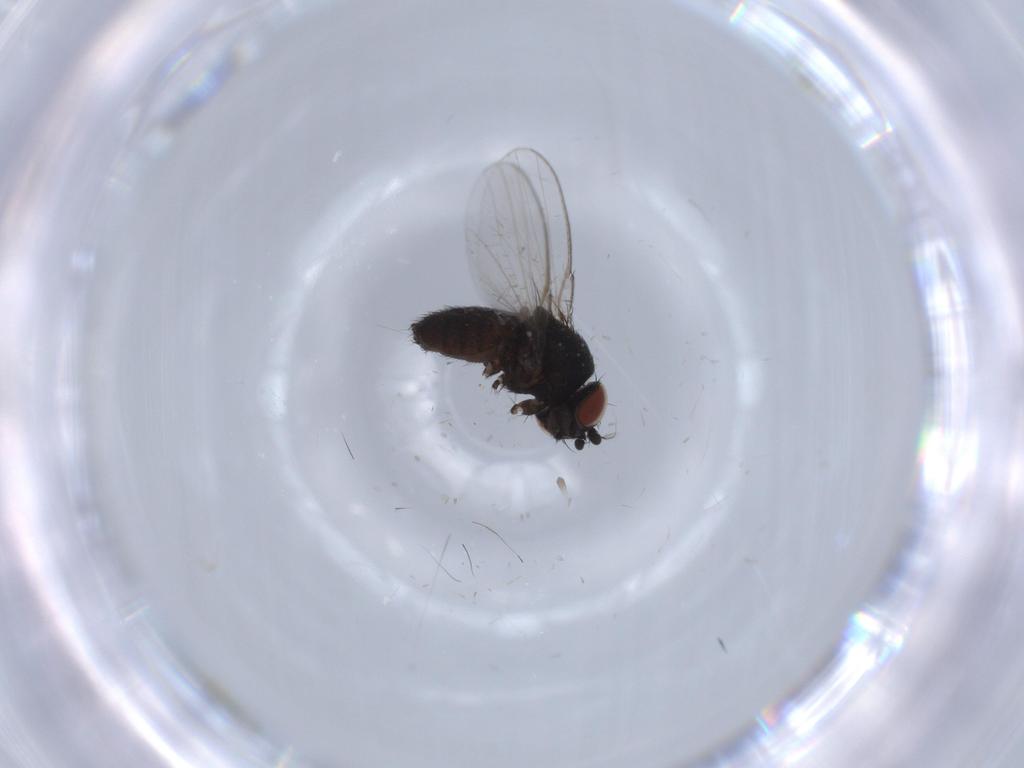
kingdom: Animalia
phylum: Arthropoda
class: Insecta
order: Diptera
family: Milichiidae
